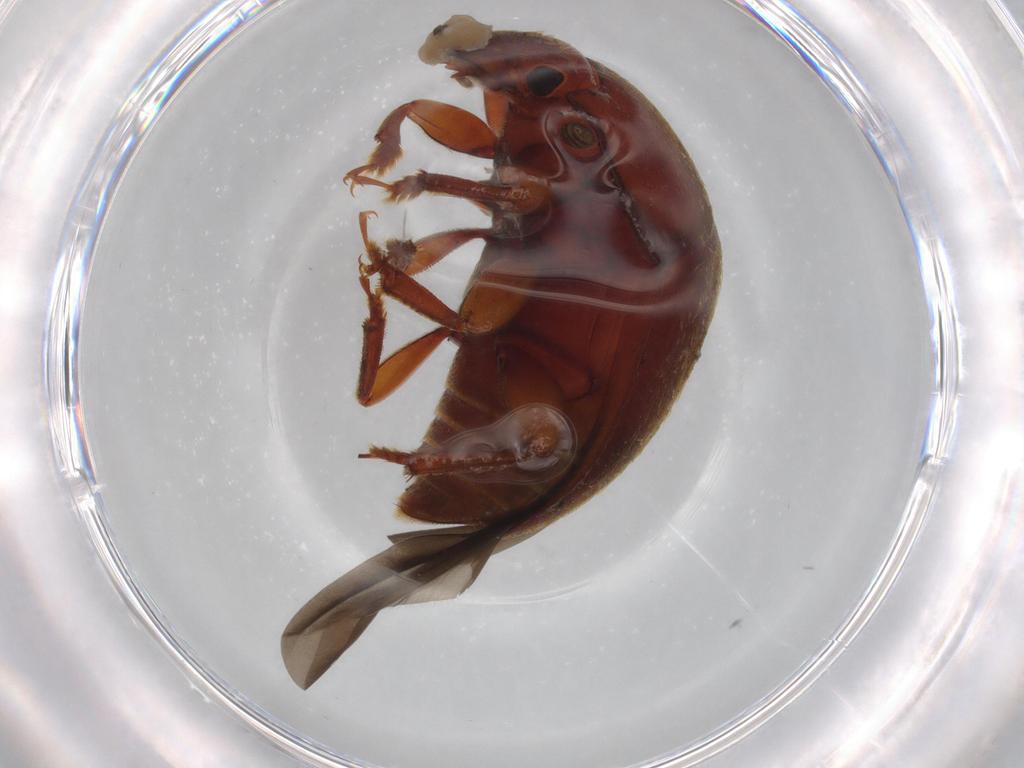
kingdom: Animalia
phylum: Arthropoda
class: Insecta
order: Coleoptera
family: Nitidulidae
